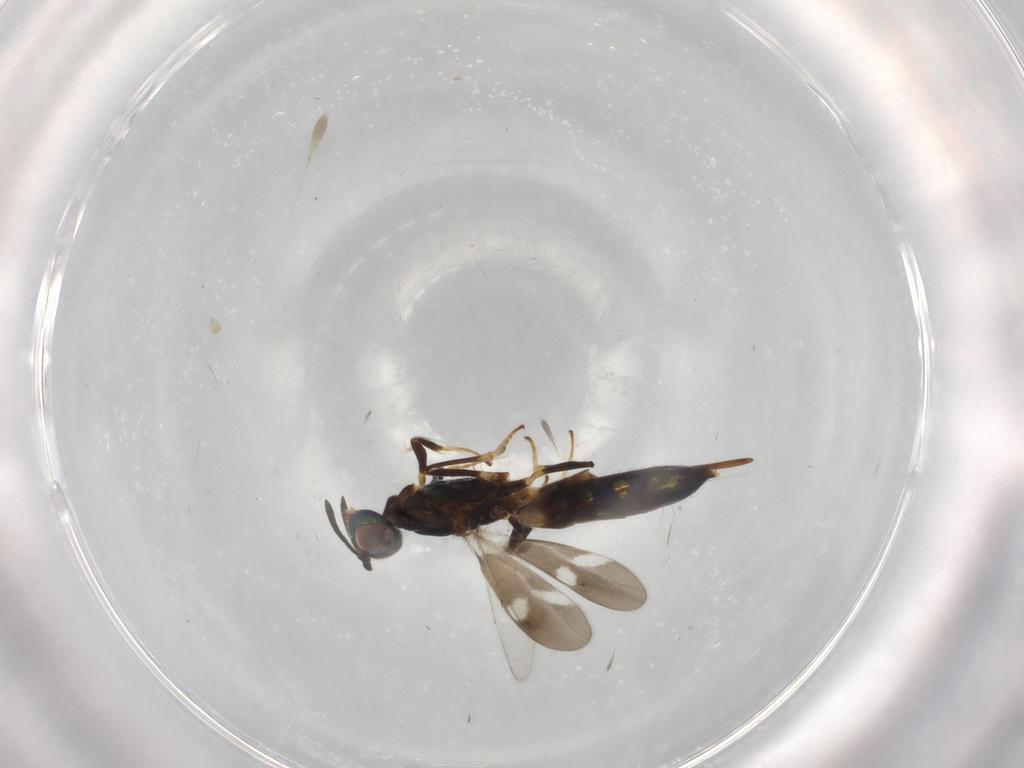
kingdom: Animalia
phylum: Arthropoda
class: Insecta
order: Hymenoptera
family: Eupelmidae
